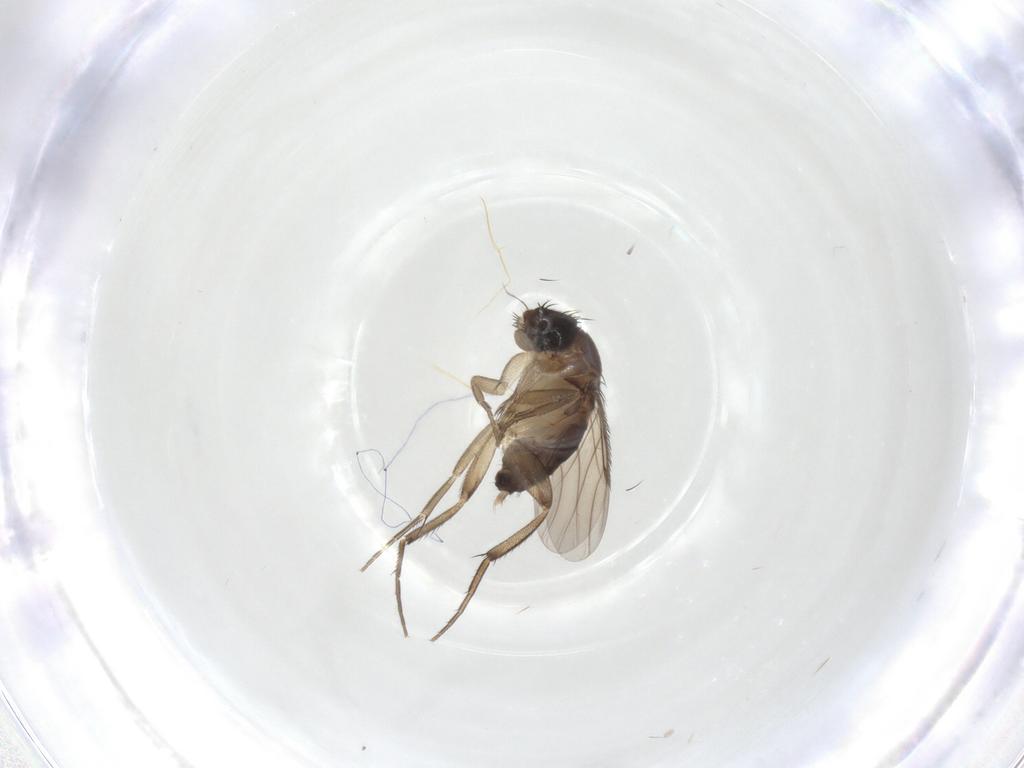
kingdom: Animalia
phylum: Arthropoda
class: Insecta
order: Diptera
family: Phoridae
